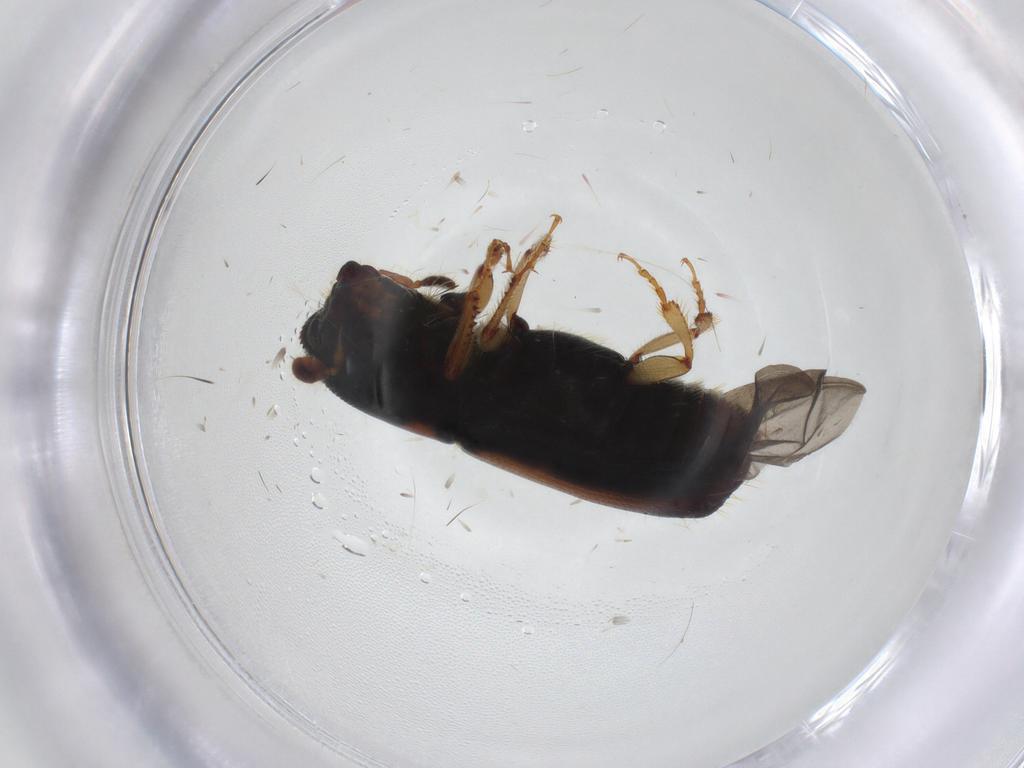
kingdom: Animalia
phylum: Arthropoda
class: Insecta
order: Coleoptera
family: Curculionidae
